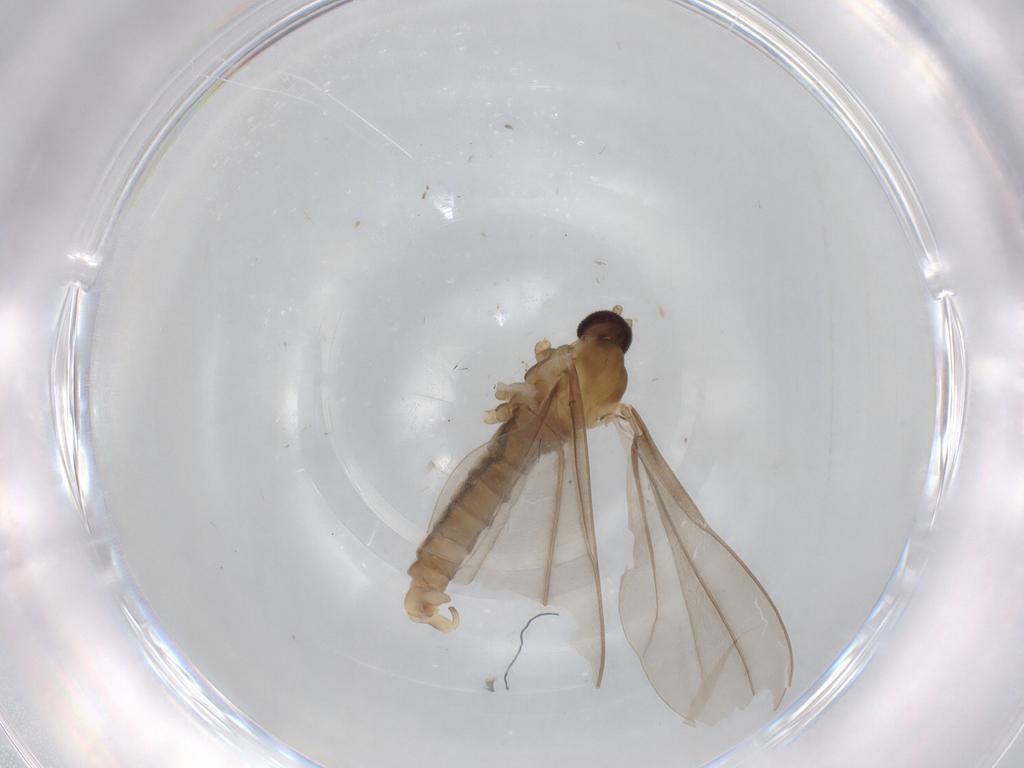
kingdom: Animalia
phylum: Arthropoda
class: Insecta
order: Diptera
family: Cecidomyiidae
